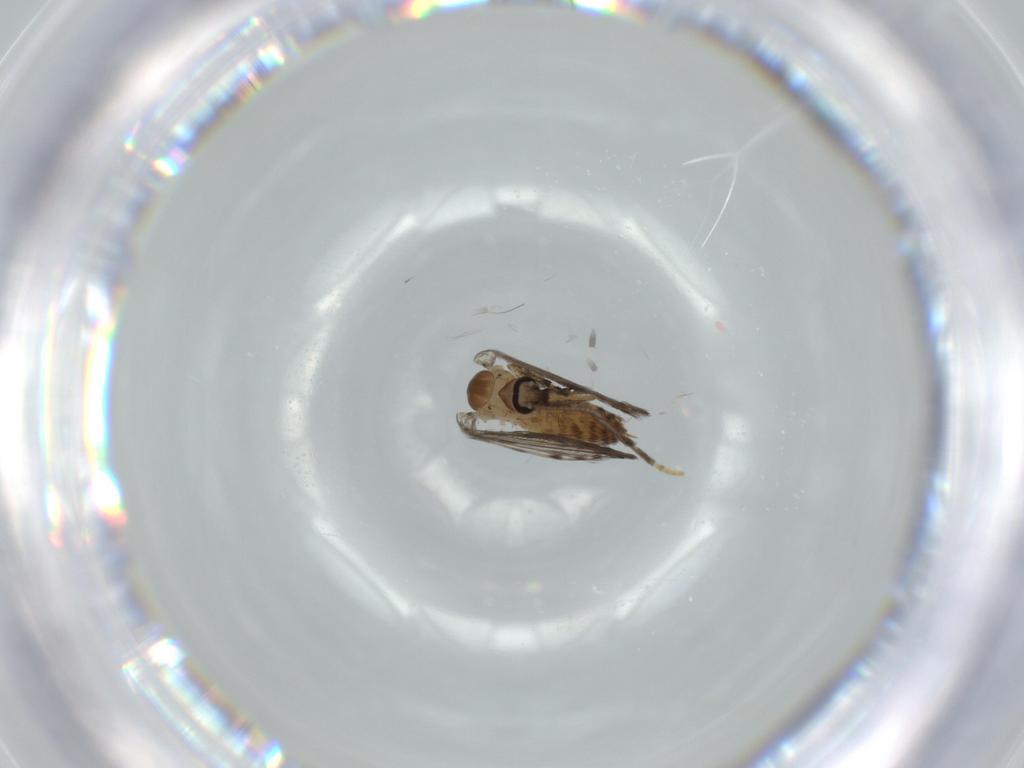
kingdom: Animalia
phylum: Arthropoda
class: Insecta
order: Diptera
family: Psychodidae
